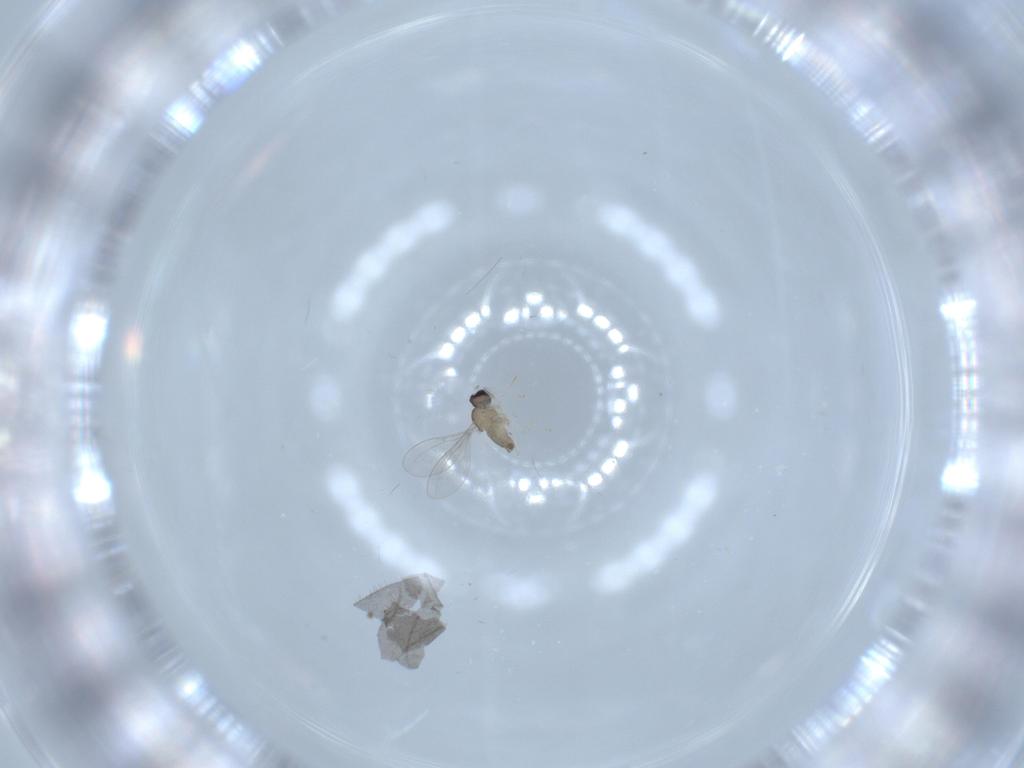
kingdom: Animalia
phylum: Arthropoda
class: Insecta
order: Diptera
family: Cecidomyiidae
